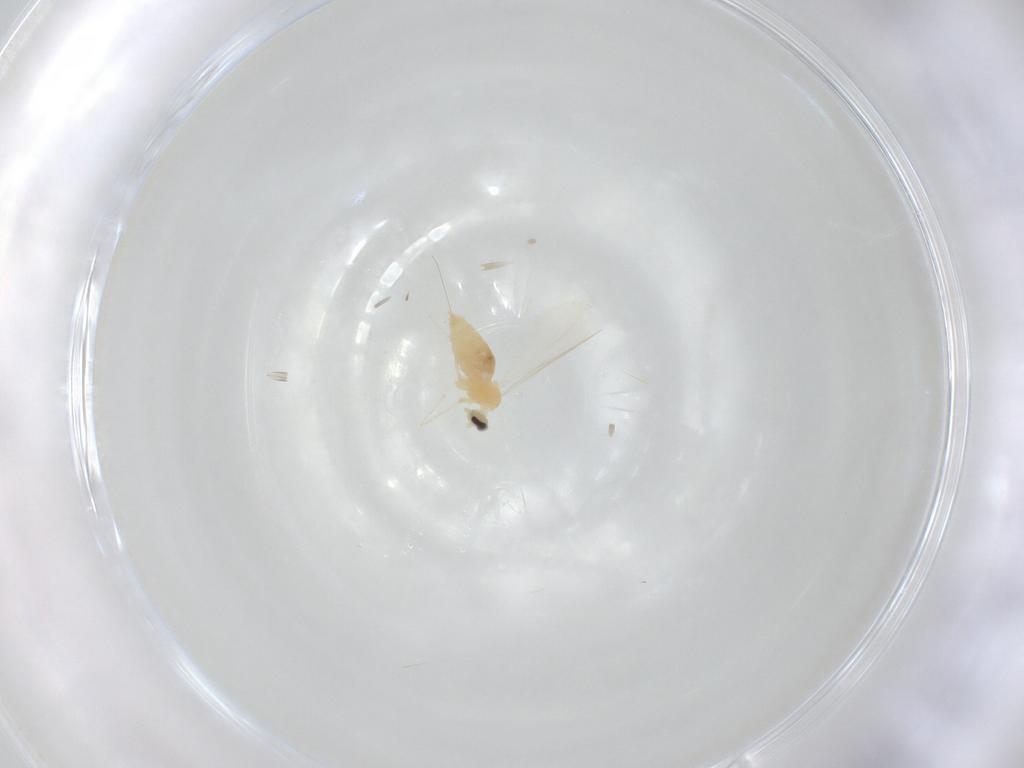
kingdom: Animalia
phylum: Arthropoda
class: Insecta
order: Diptera
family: Cecidomyiidae
